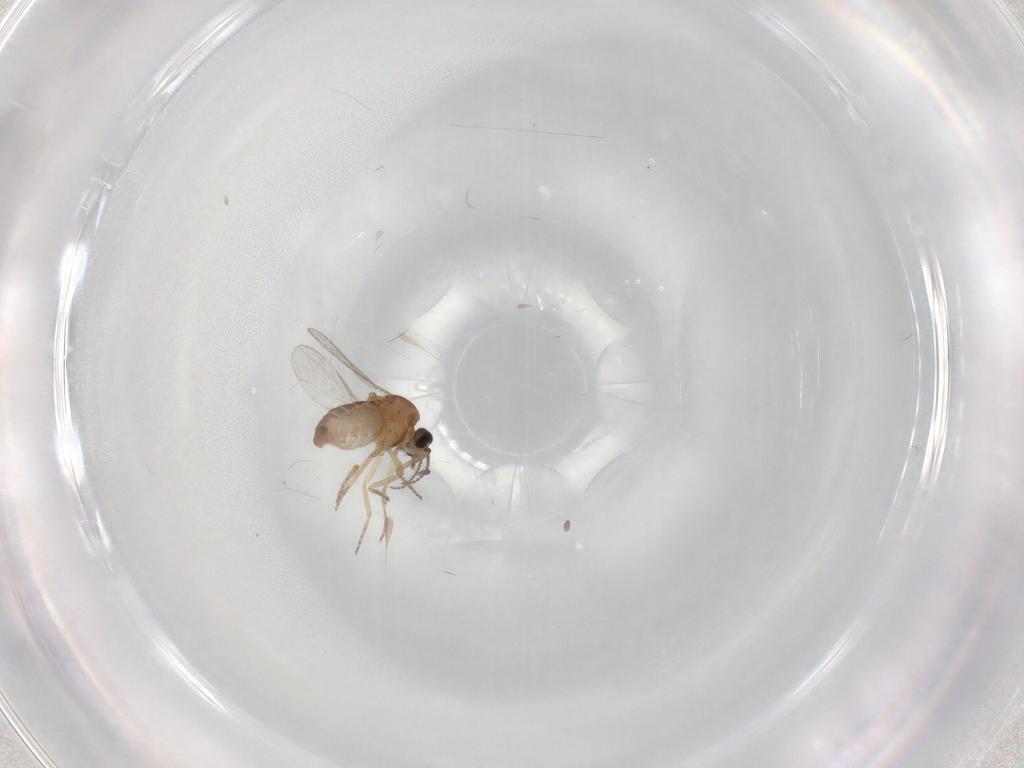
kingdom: Animalia
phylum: Arthropoda
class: Insecta
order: Diptera
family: Ceratopogonidae
